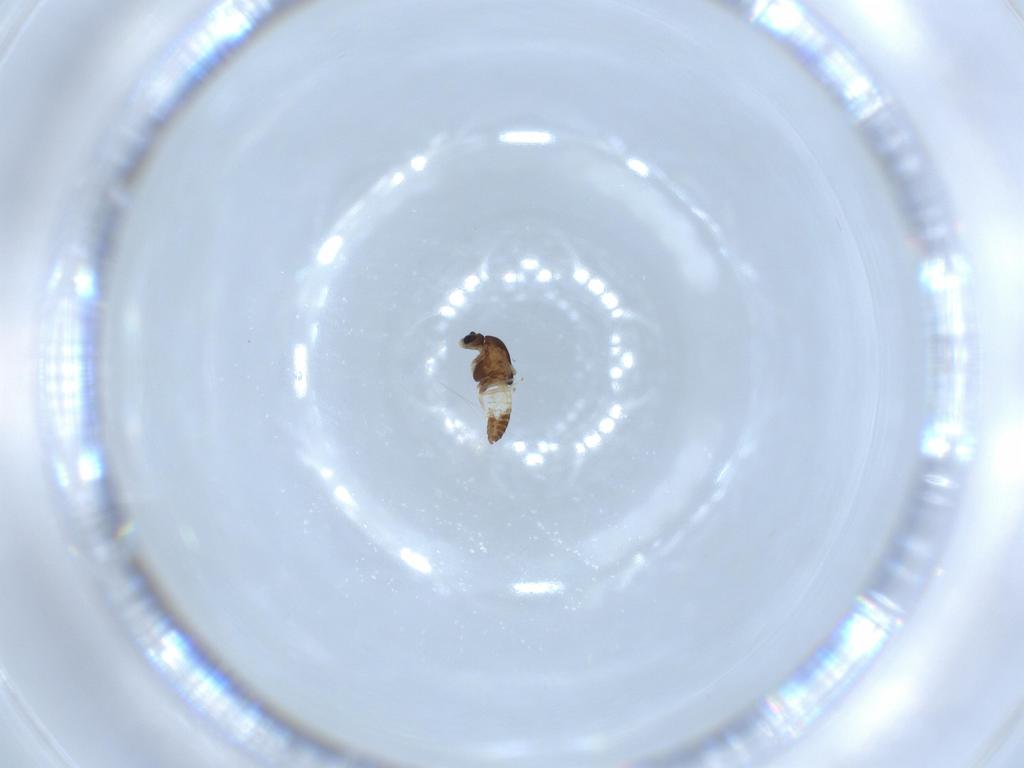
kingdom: Animalia
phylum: Arthropoda
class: Insecta
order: Diptera
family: Chironomidae
